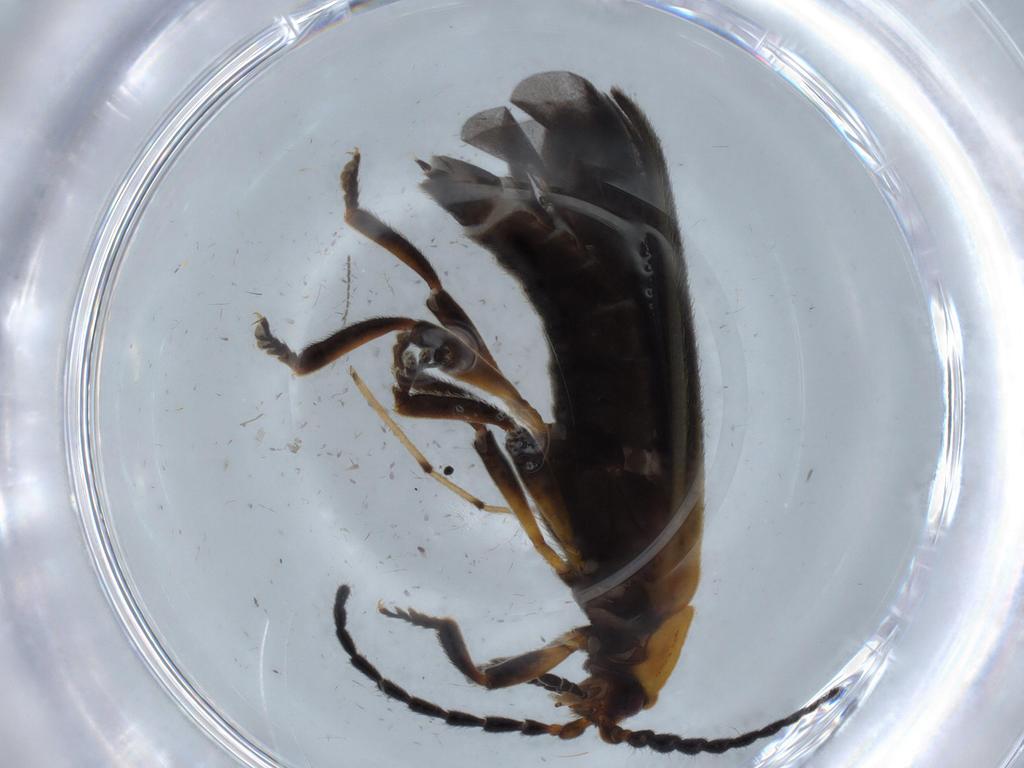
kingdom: Animalia
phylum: Arthropoda
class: Insecta
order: Coleoptera
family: Lycidae
